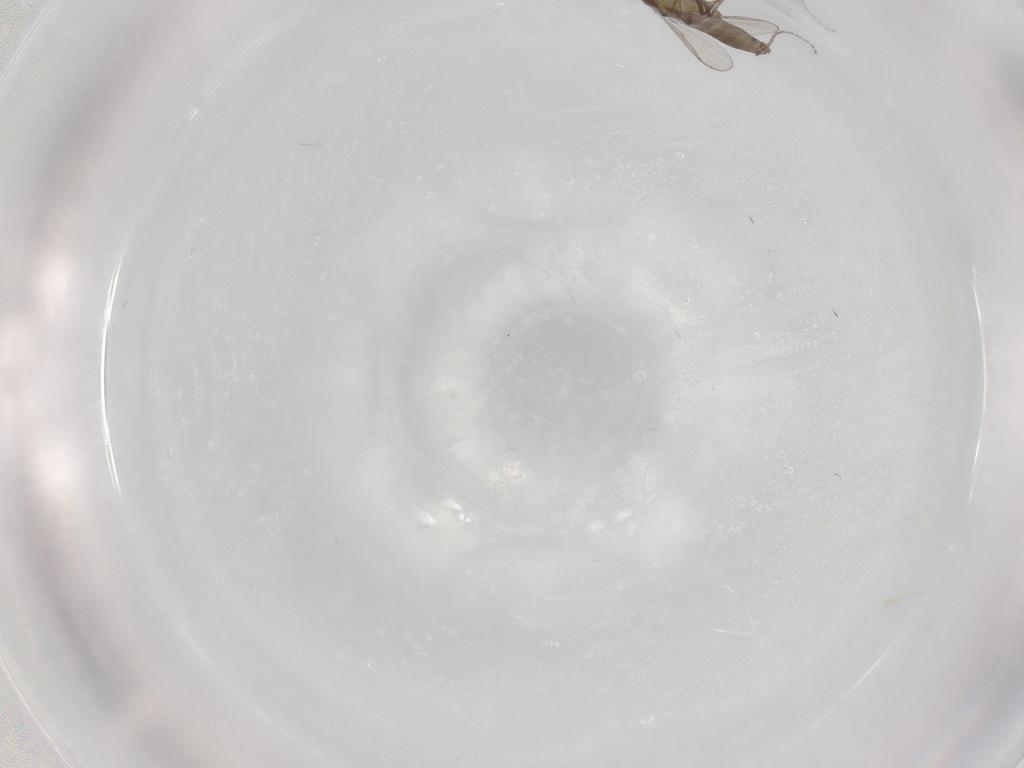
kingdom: Animalia
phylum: Arthropoda
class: Insecta
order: Diptera
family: Chironomidae
